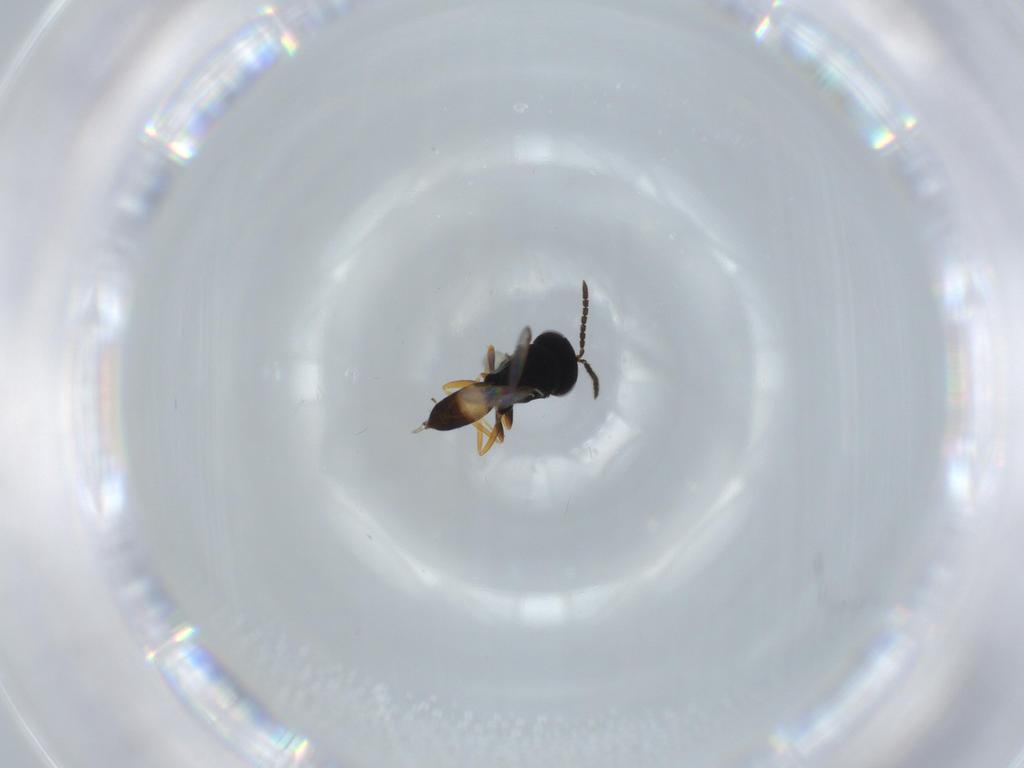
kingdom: Animalia
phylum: Arthropoda
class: Insecta
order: Hymenoptera
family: Pteromalidae
